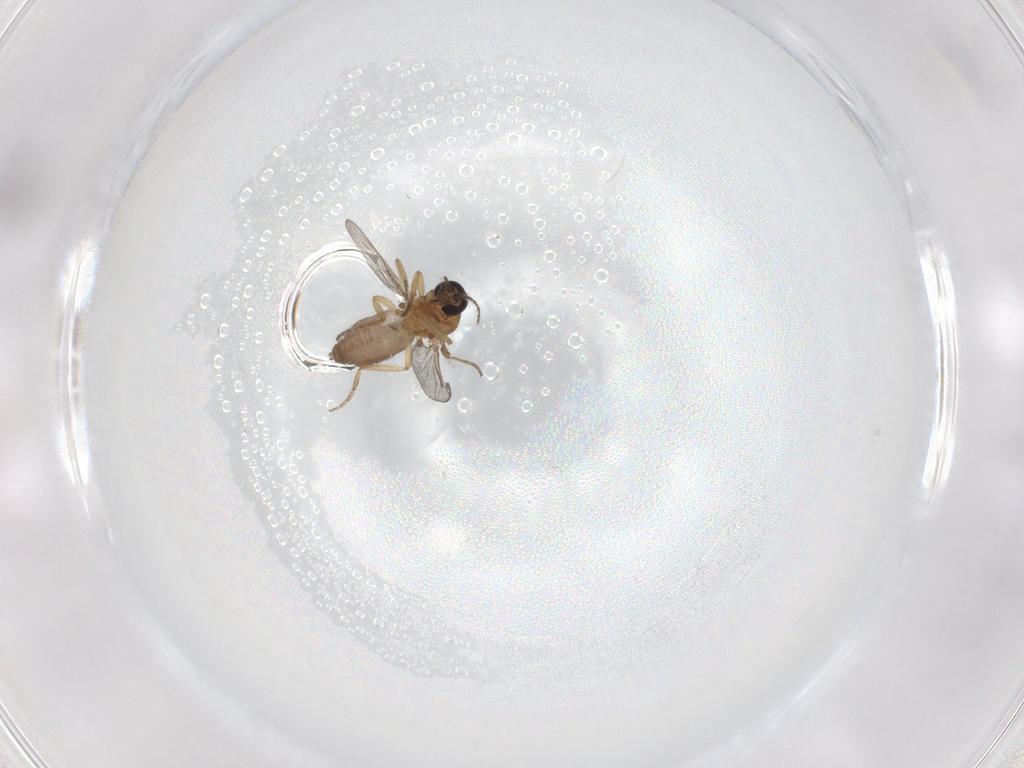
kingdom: Animalia
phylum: Arthropoda
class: Insecta
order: Diptera
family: Ceratopogonidae
